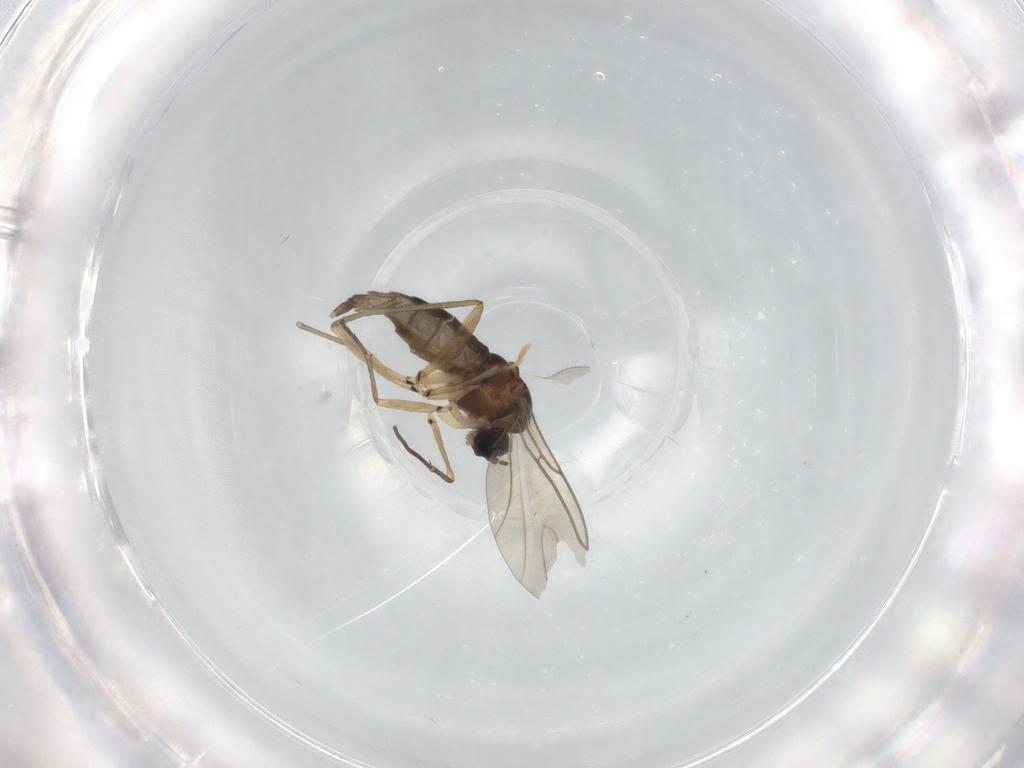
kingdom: Animalia
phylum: Arthropoda
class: Insecta
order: Diptera
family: Sciaridae
